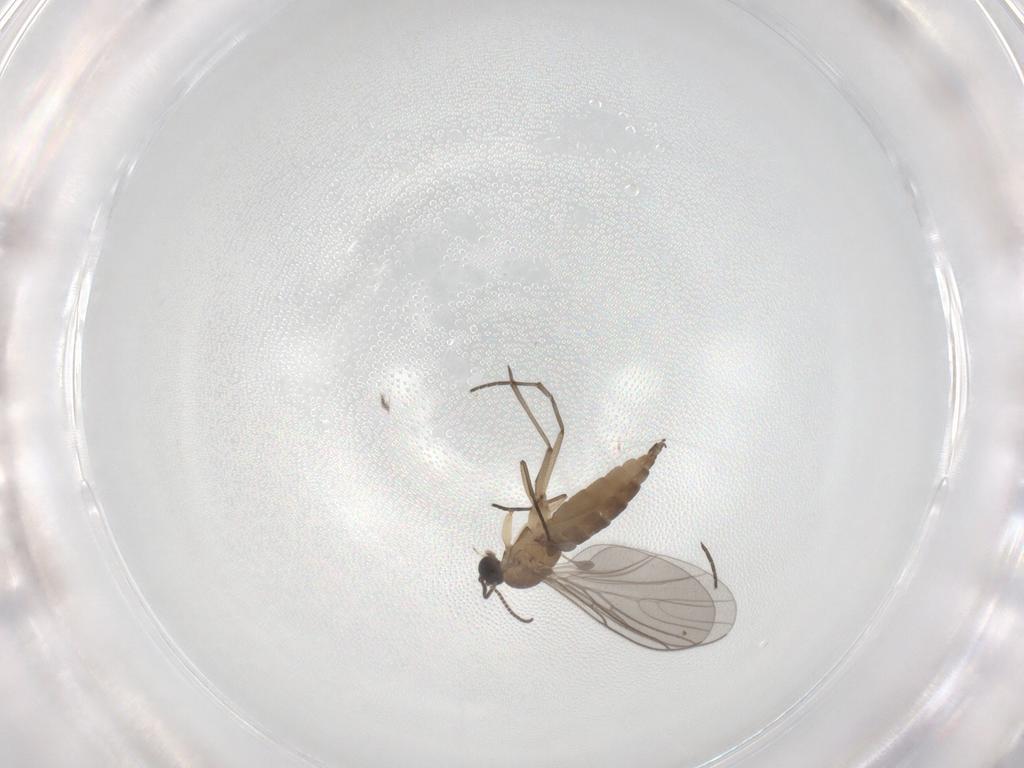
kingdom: Animalia
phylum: Arthropoda
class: Insecta
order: Diptera
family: Sciaridae
